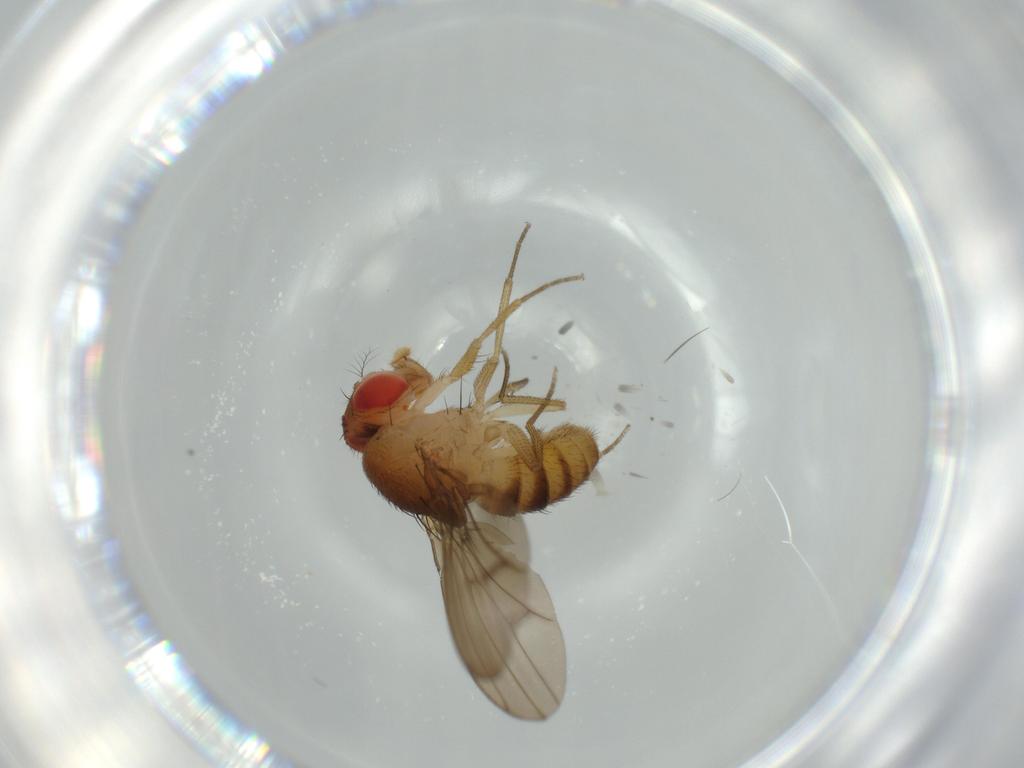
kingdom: Animalia
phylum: Arthropoda
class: Insecta
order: Diptera
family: Drosophilidae
